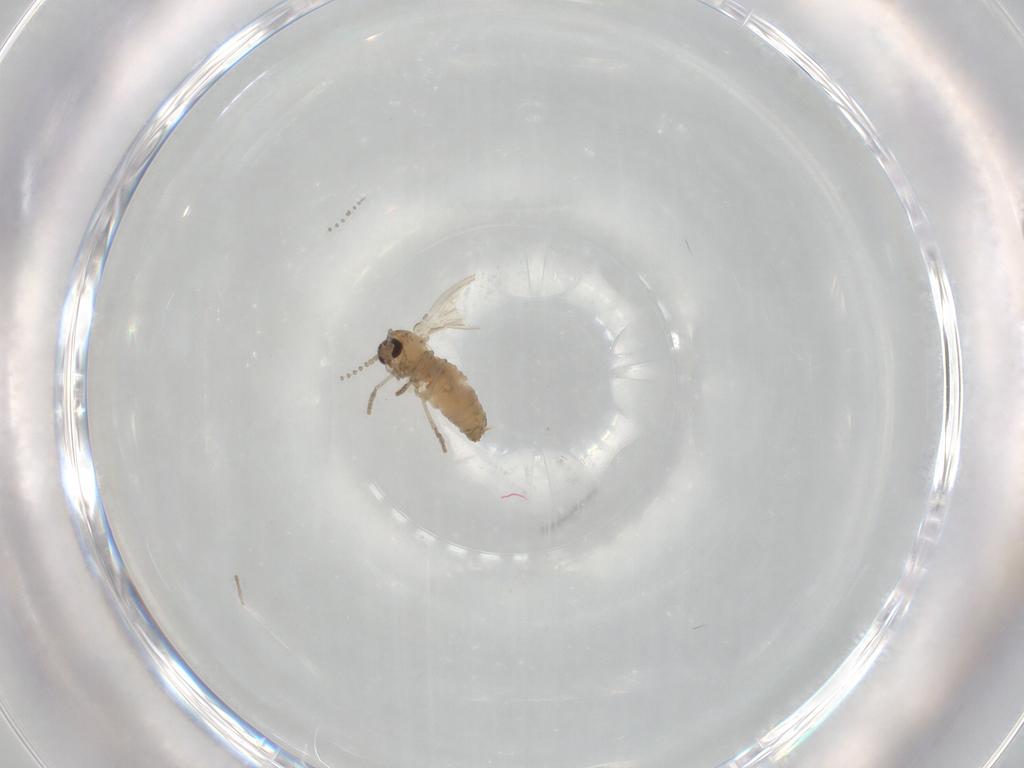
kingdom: Animalia
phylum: Arthropoda
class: Insecta
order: Diptera
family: Psychodidae
